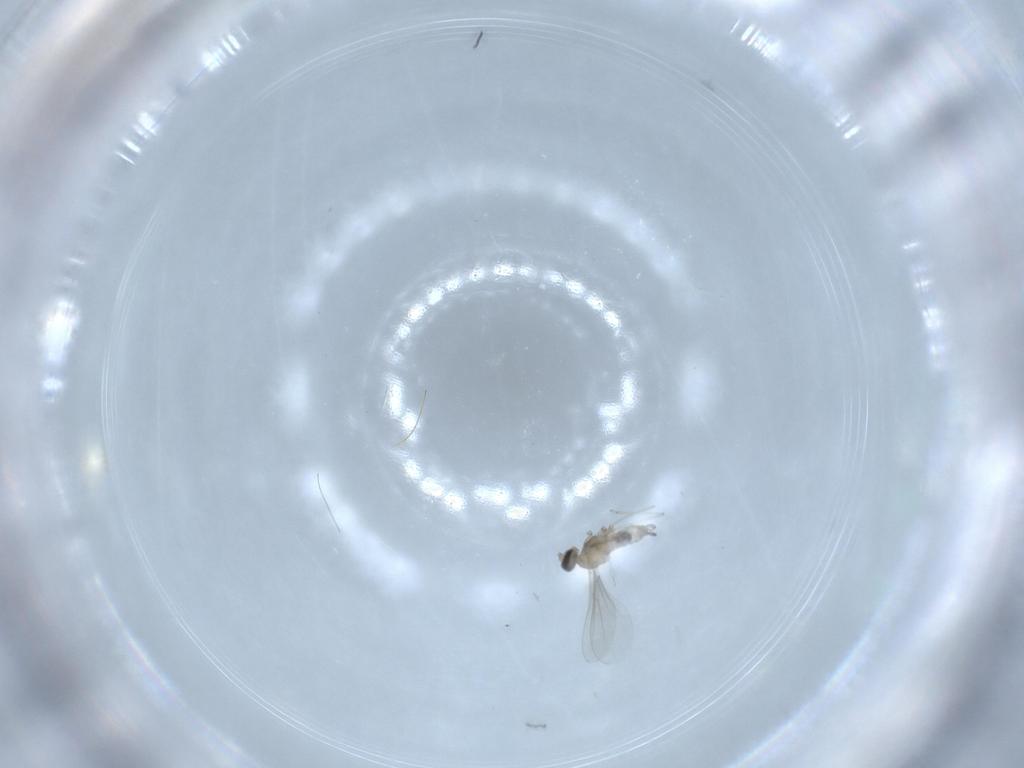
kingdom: Animalia
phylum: Arthropoda
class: Insecta
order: Diptera
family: Cecidomyiidae
